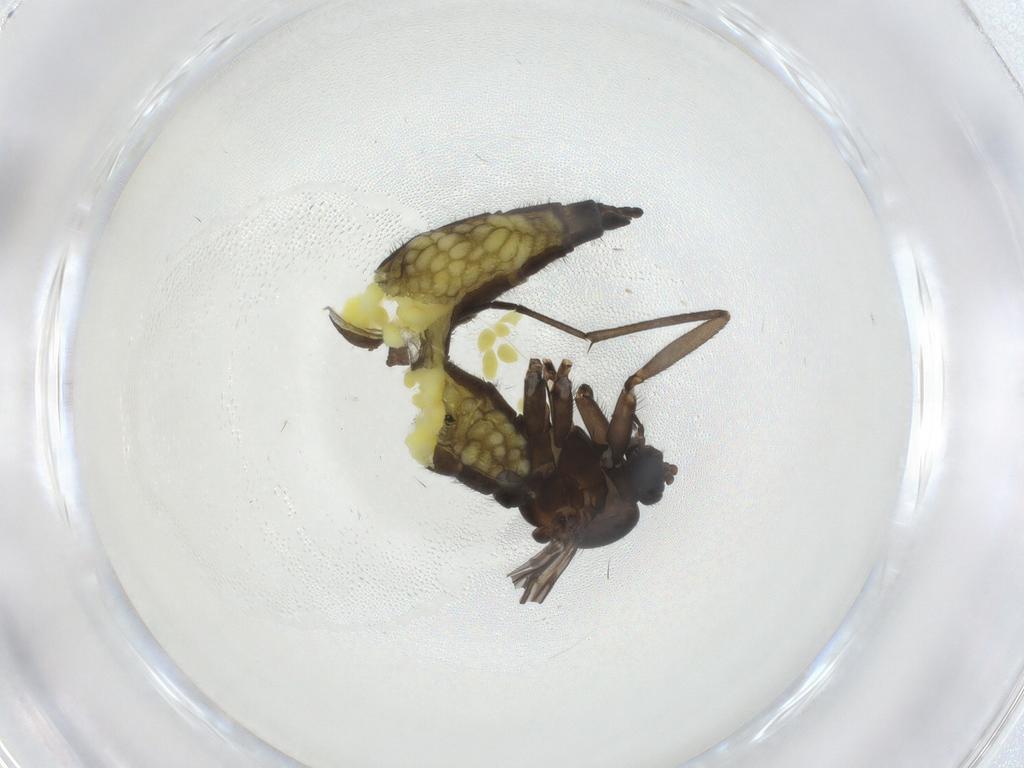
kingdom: Animalia
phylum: Arthropoda
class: Insecta
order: Diptera
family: Sciaridae
